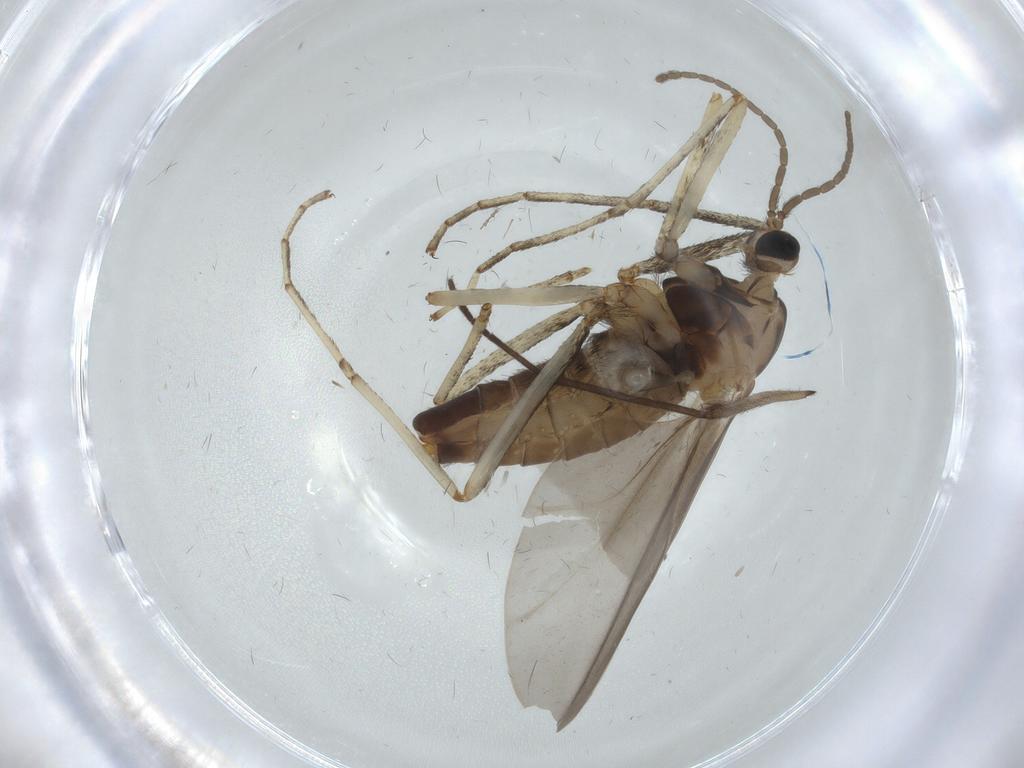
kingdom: Animalia
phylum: Arthropoda
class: Insecta
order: Diptera
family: Cecidomyiidae
